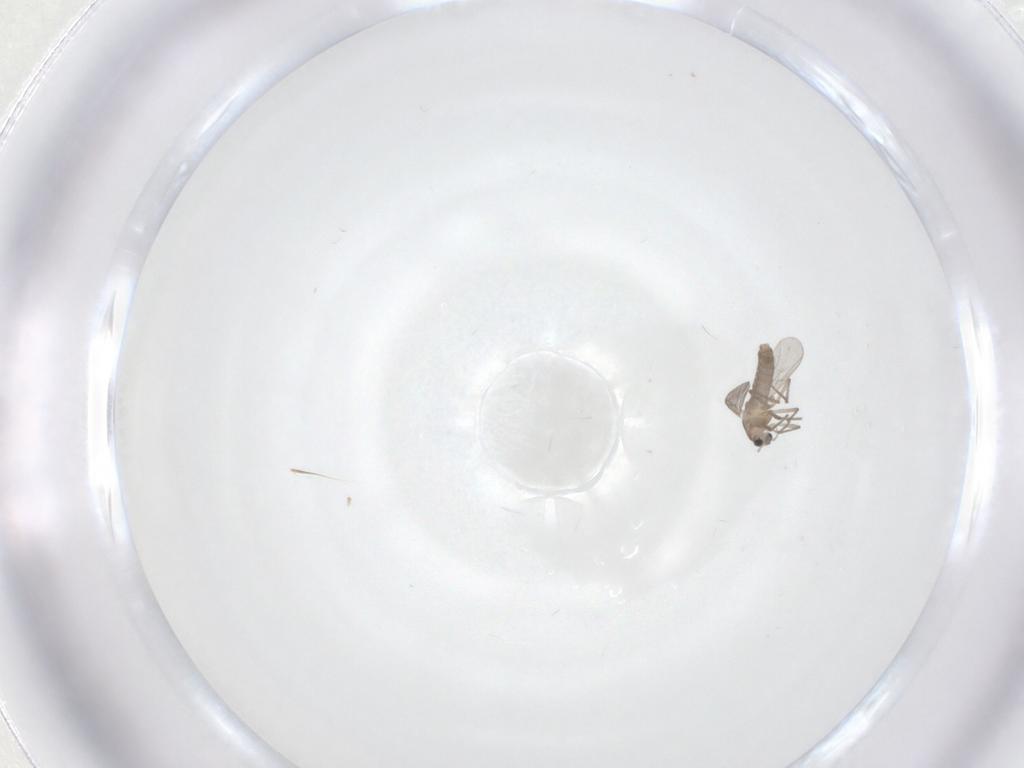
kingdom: Animalia
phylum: Arthropoda
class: Insecta
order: Diptera
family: Chironomidae
